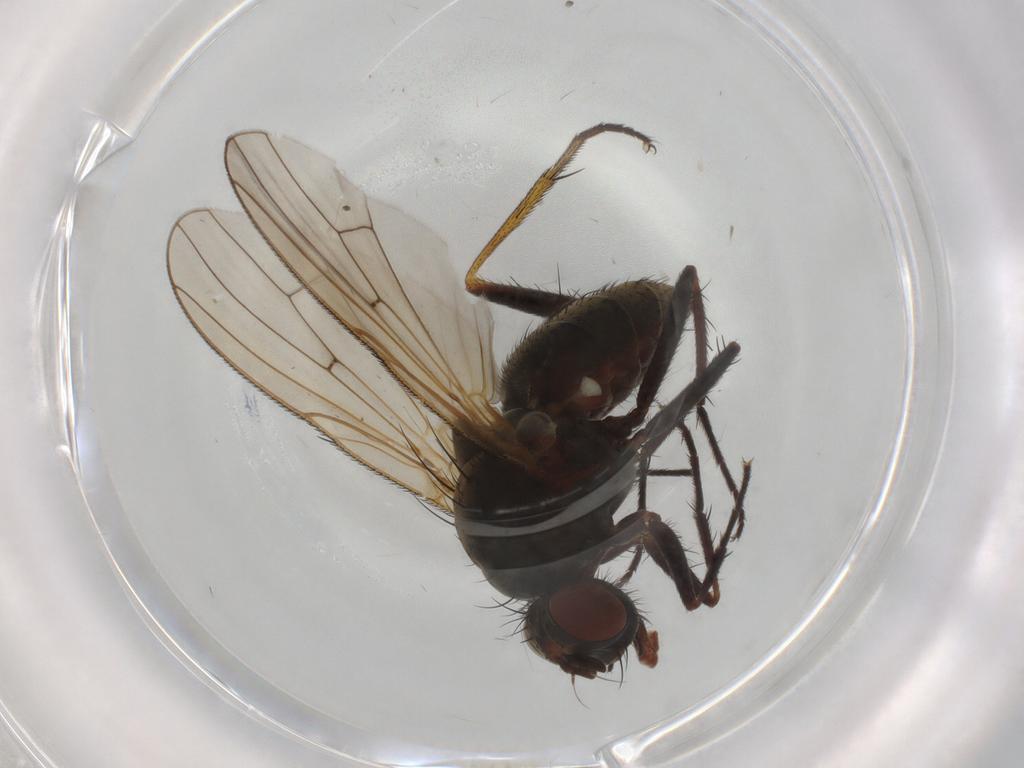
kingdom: Animalia
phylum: Arthropoda
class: Insecta
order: Diptera
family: Anthomyiidae
